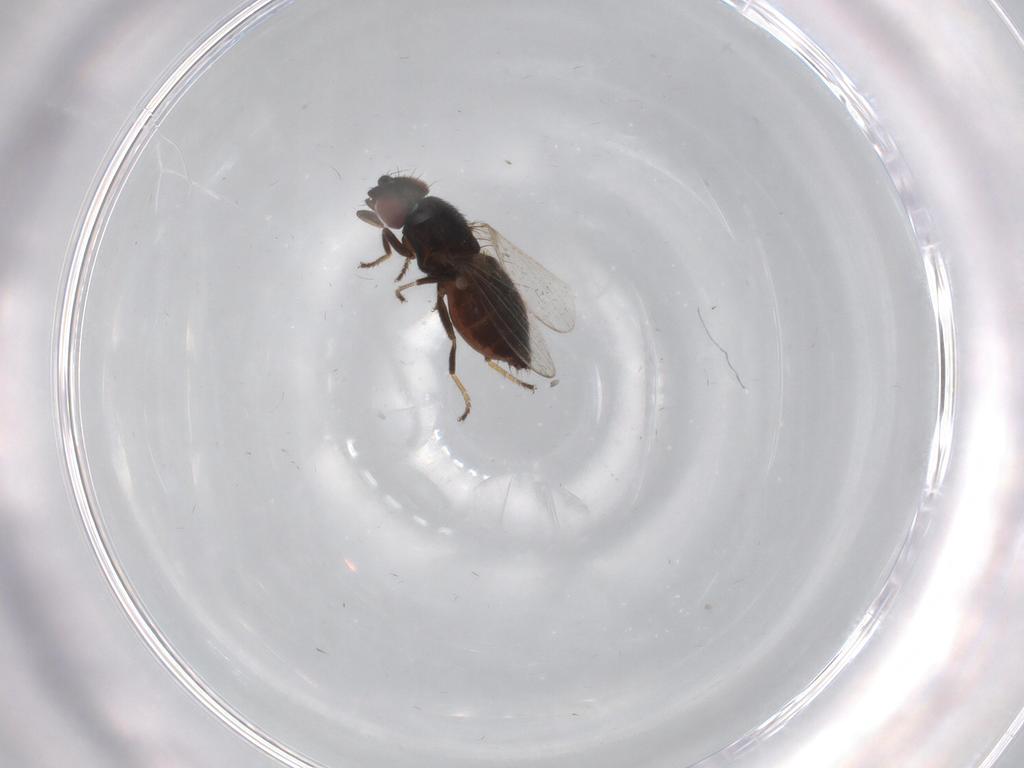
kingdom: Animalia
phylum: Arthropoda
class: Insecta
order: Diptera
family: Milichiidae
